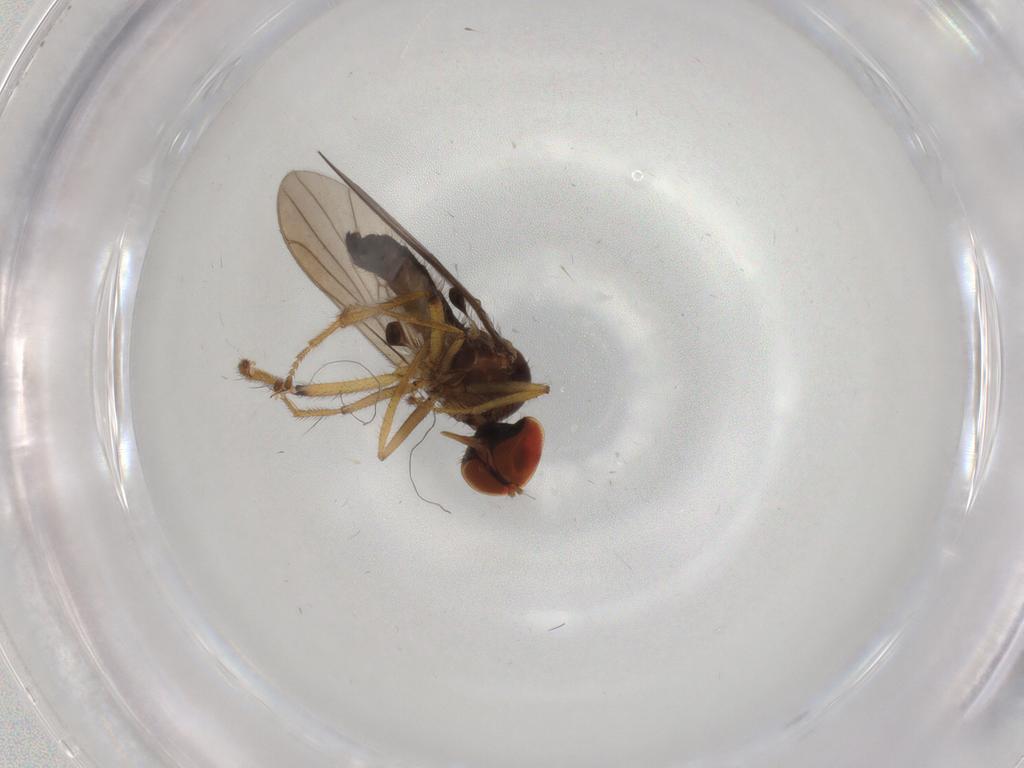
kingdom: Animalia
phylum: Arthropoda
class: Insecta
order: Diptera
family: Hybotidae
